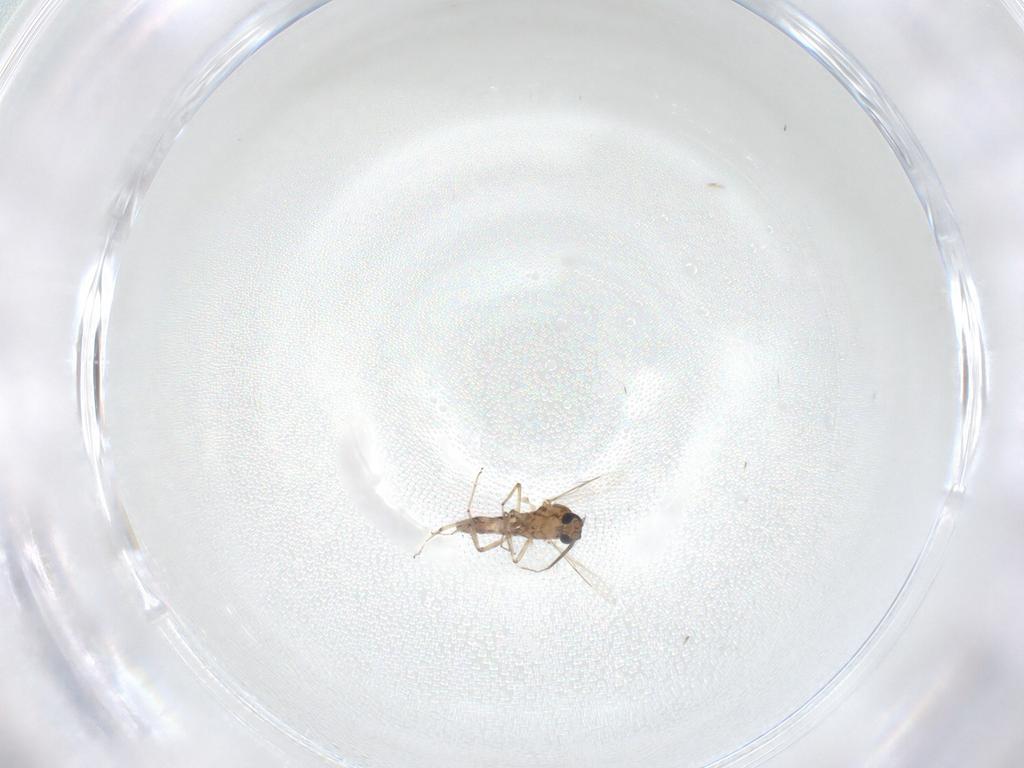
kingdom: Animalia
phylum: Arthropoda
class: Insecta
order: Diptera
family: Ceratopogonidae
